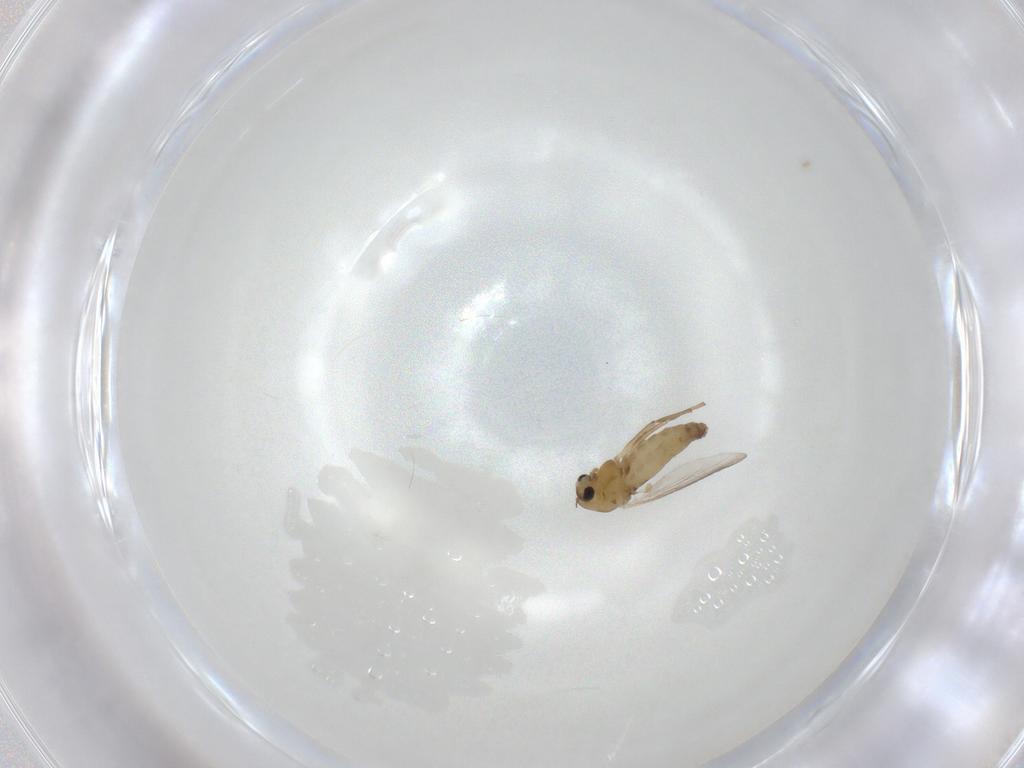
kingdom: Animalia
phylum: Arthropoda
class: Insecta
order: Diptera
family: Chironomidae
